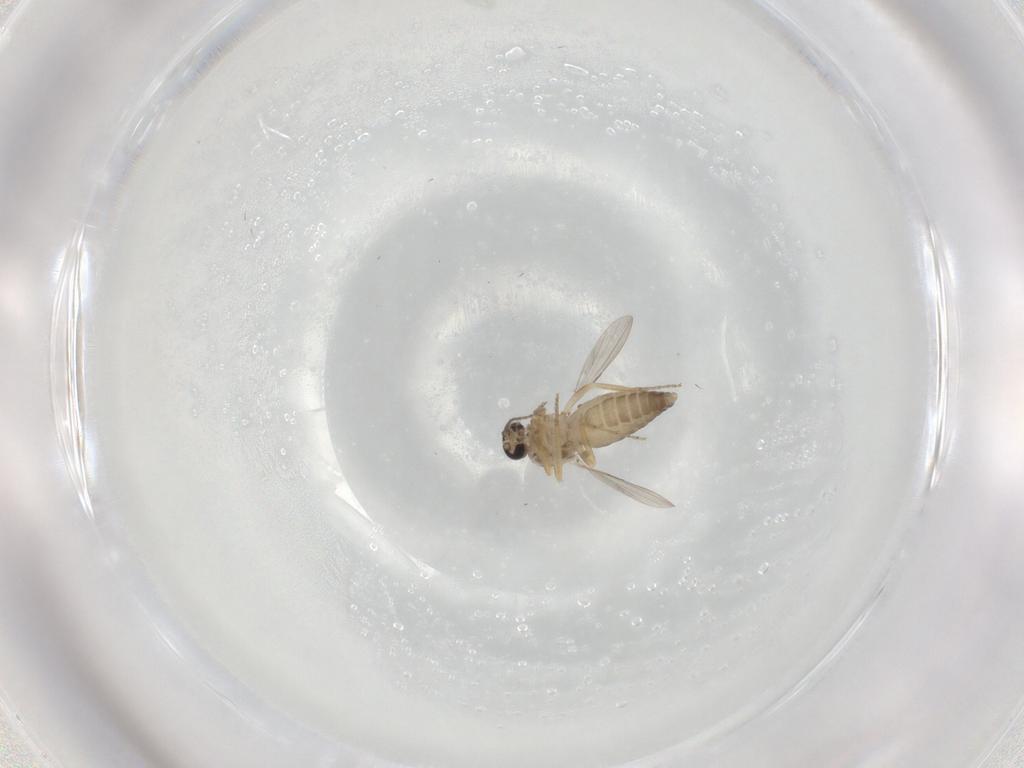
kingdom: Animalia
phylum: Arthropoda
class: Insecta
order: Diptera
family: Ceratopogonidae
